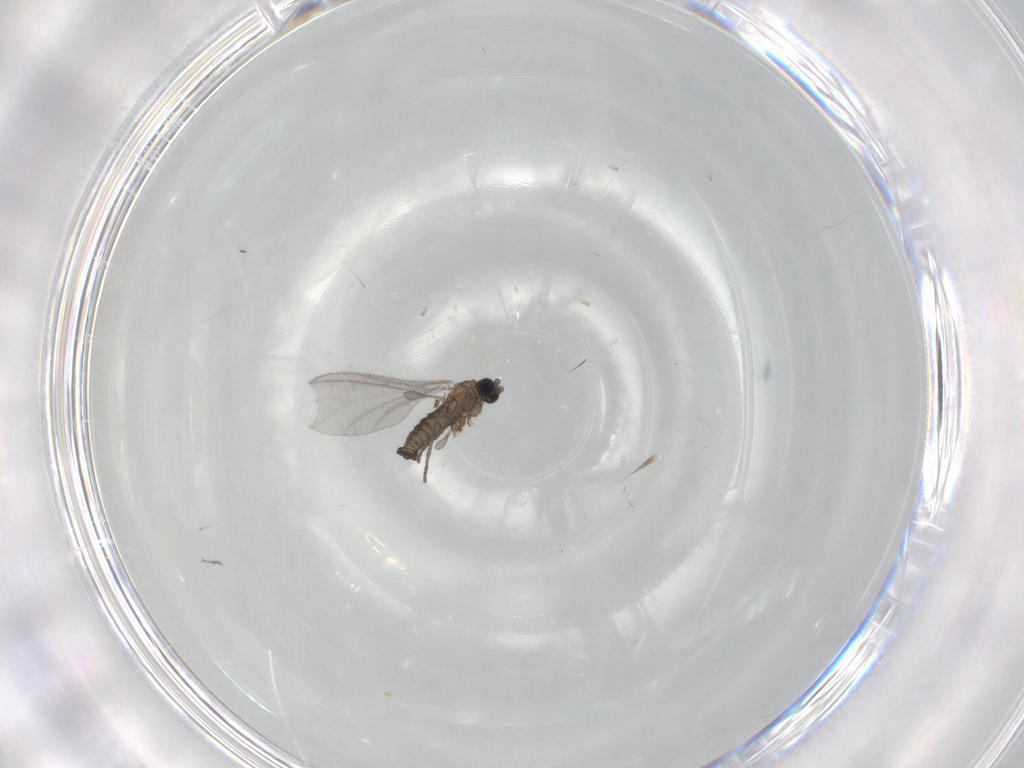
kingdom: Animalia
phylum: Arthropoda
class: Insecta
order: Diptera
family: Sciaridae
